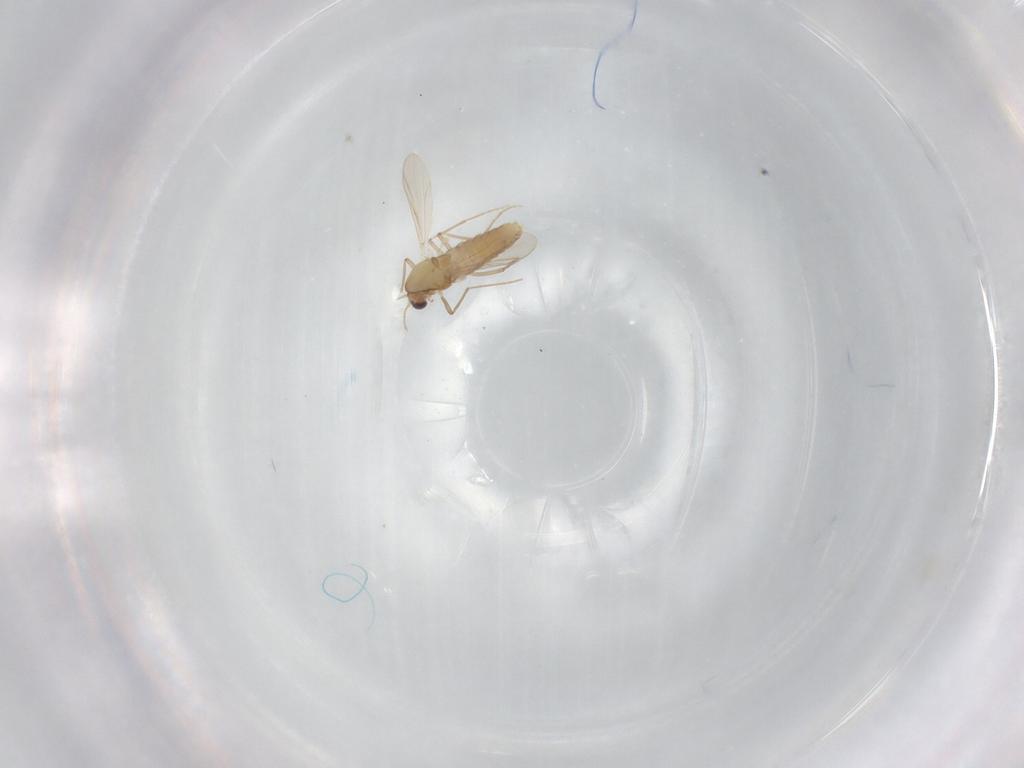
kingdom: Animalia
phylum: Arthropoda
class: Insecta
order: Diptera
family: Chironomidae
